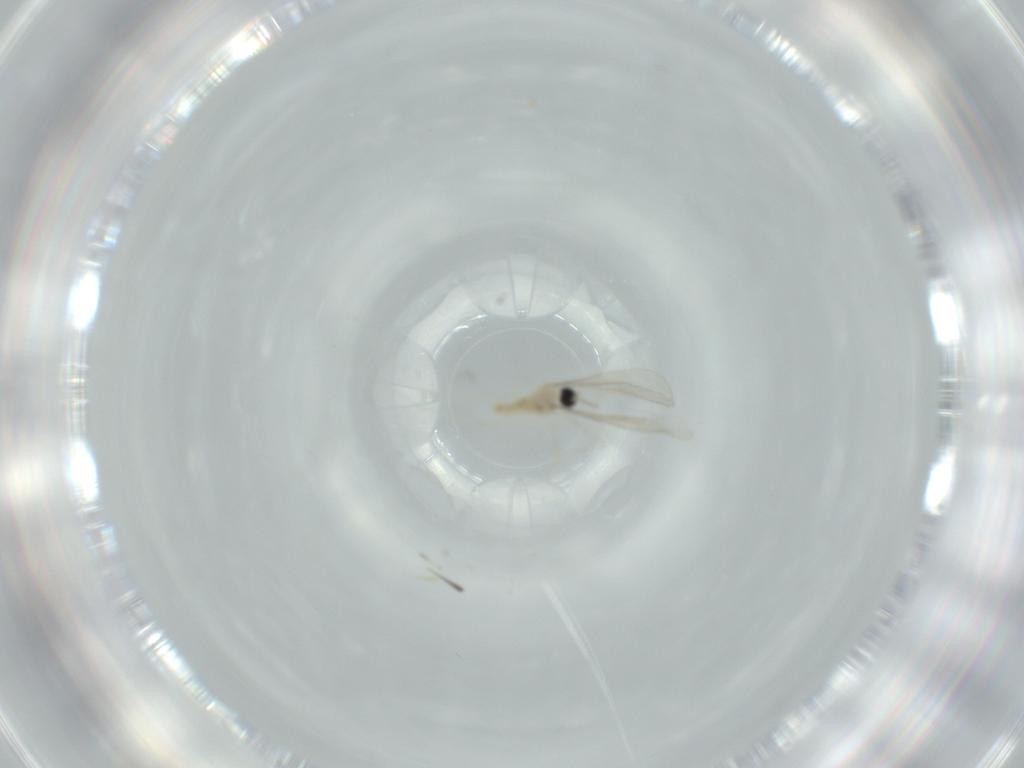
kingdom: Animalia
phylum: Arthropoda
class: Insecta
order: Diptera
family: Cecidomyiidae
